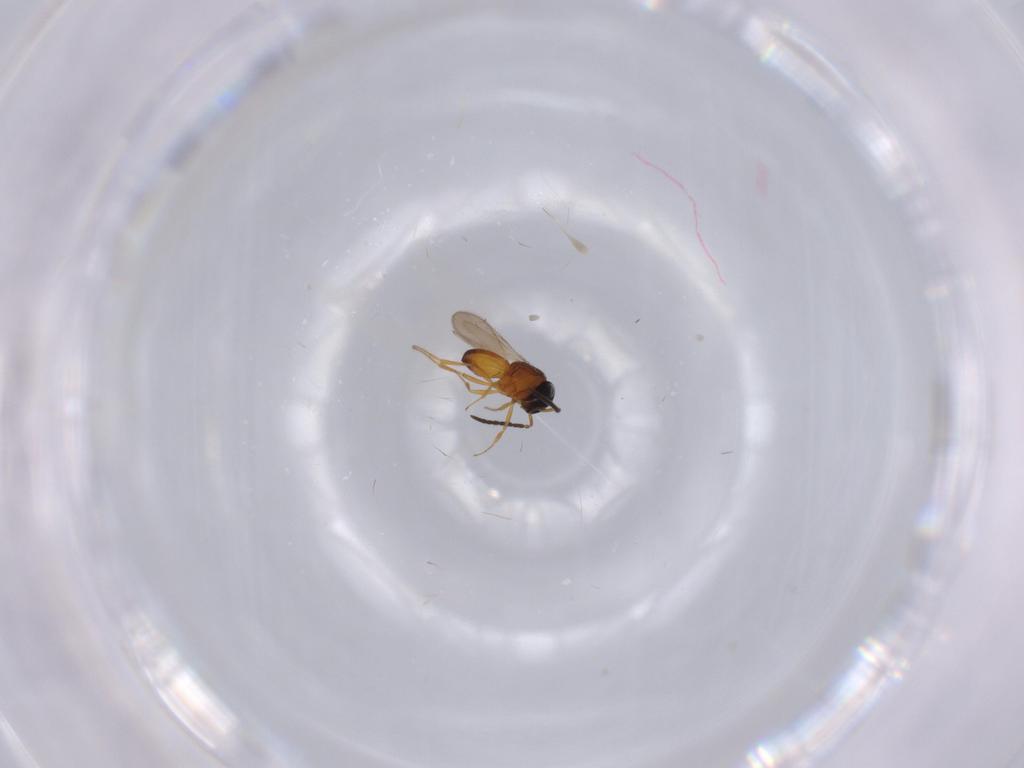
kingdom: Animalia
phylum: Arthropoda
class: Insecta
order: Hymenoptera
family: Scelionidae
